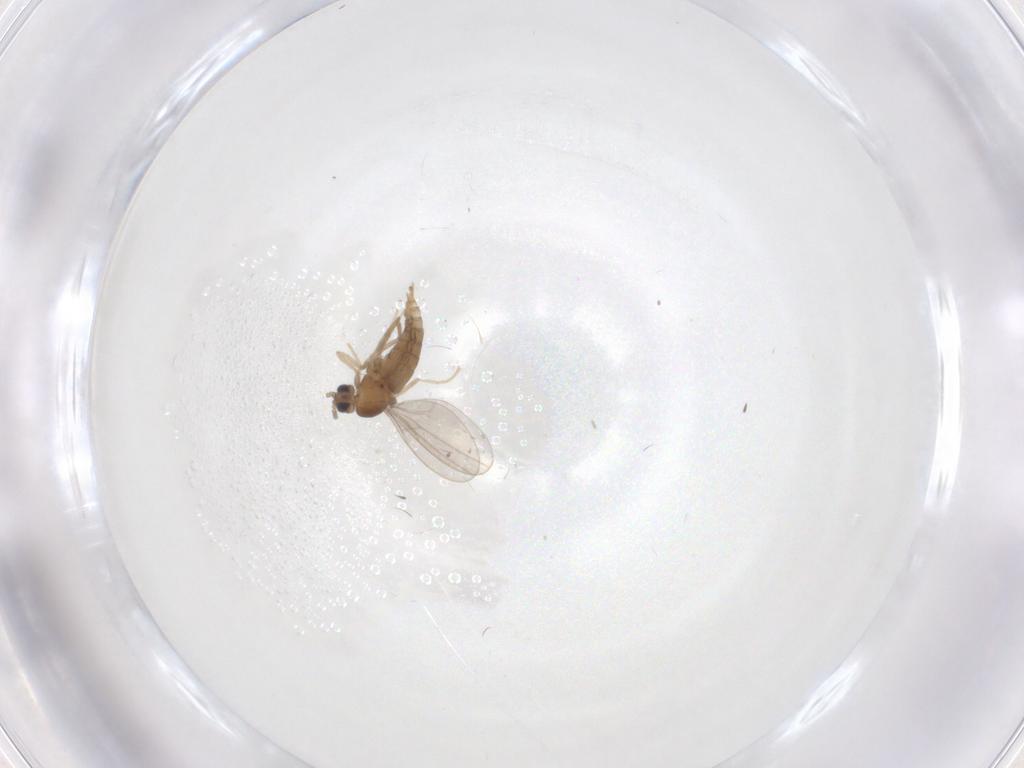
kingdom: Animalia
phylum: Arthropoda
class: Insecta
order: Diptera
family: Cecidomyiidae
